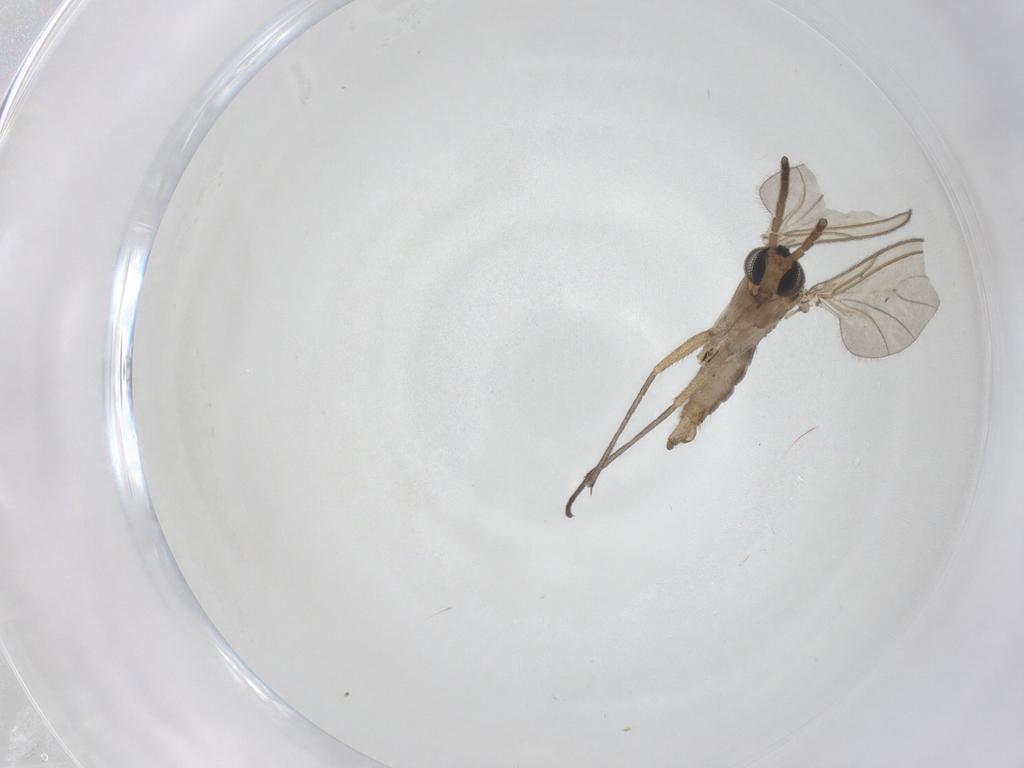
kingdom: Animalia
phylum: Arthropoda
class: Insecta
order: Diptera
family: Sciaridae
